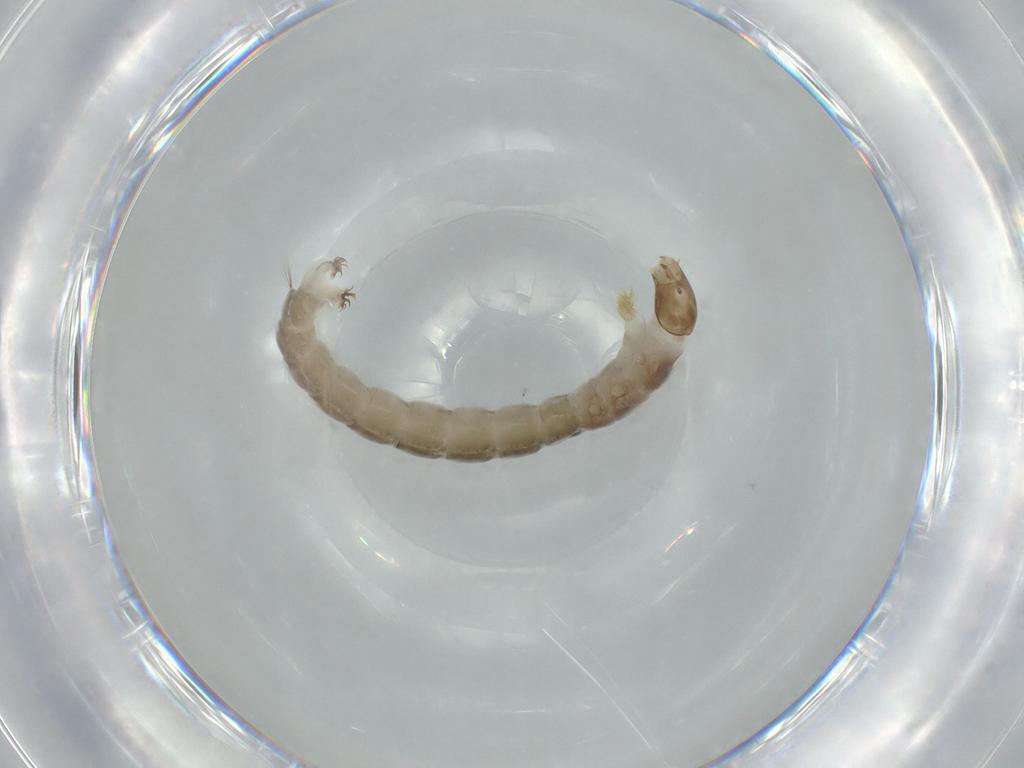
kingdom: Animalia
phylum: Arthropoda
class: Insecta
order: Diptera
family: Chironomidae
